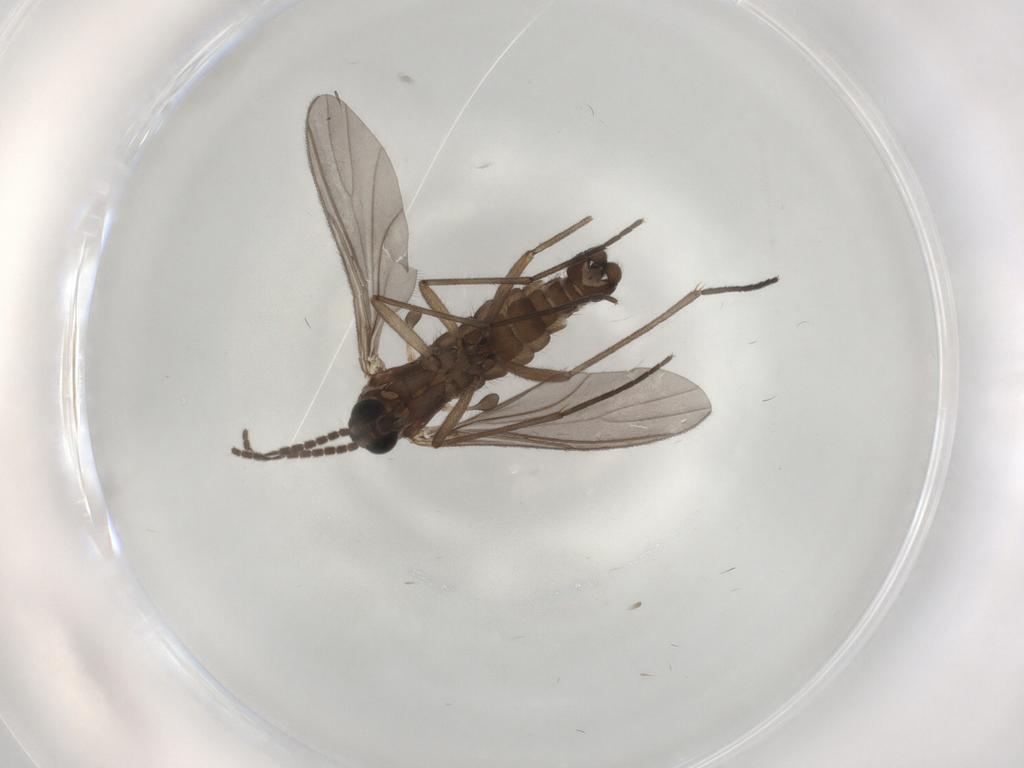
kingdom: Animalia
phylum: Arthropoda
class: Insecta
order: Diptera
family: Sciaridae
